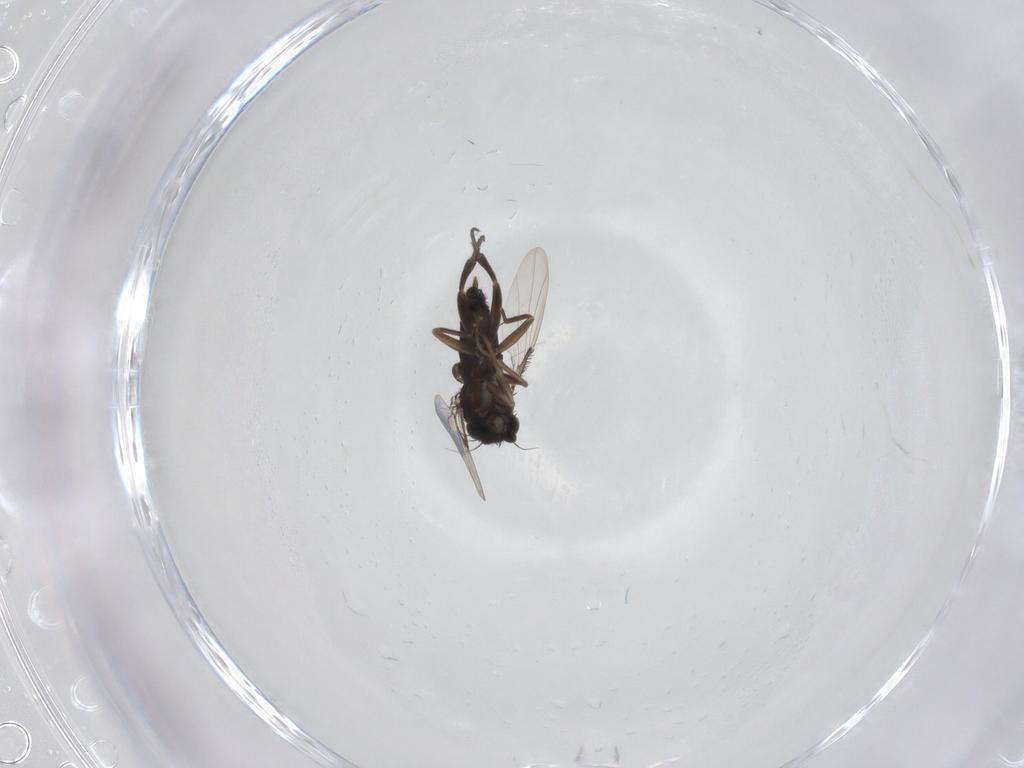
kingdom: Animalia
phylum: Arthropoda
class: Insecta
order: Diptera
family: Phoridae
